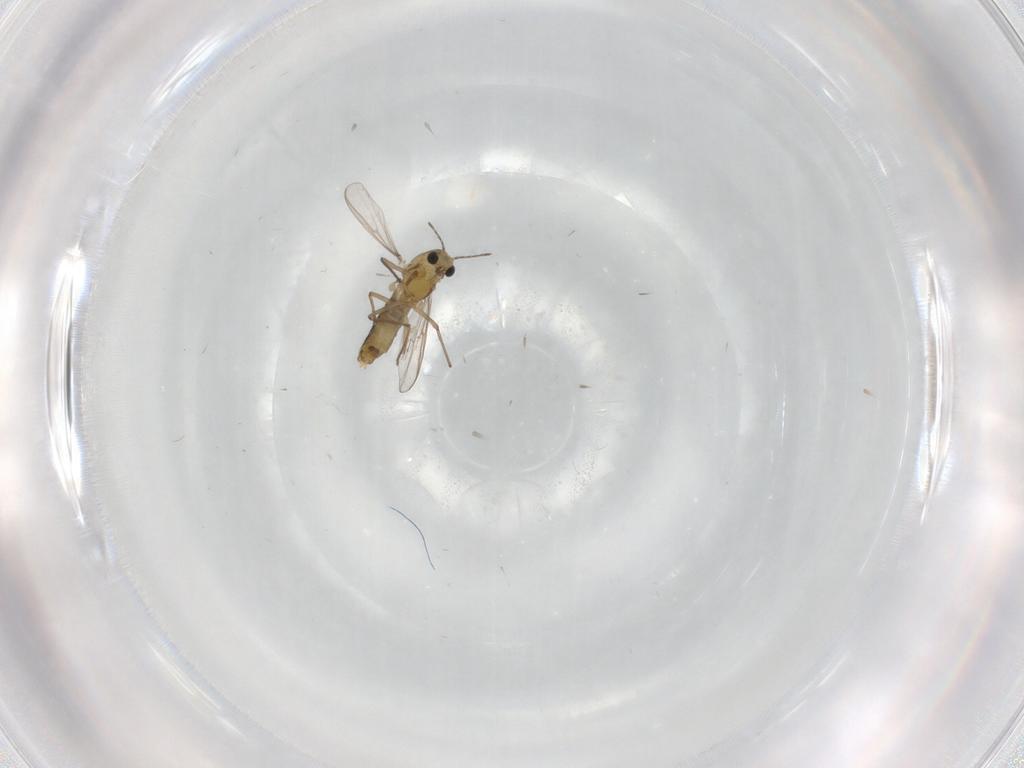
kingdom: Animalia
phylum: Arthropoda
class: Insecta
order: Diptera
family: Chironomidae
